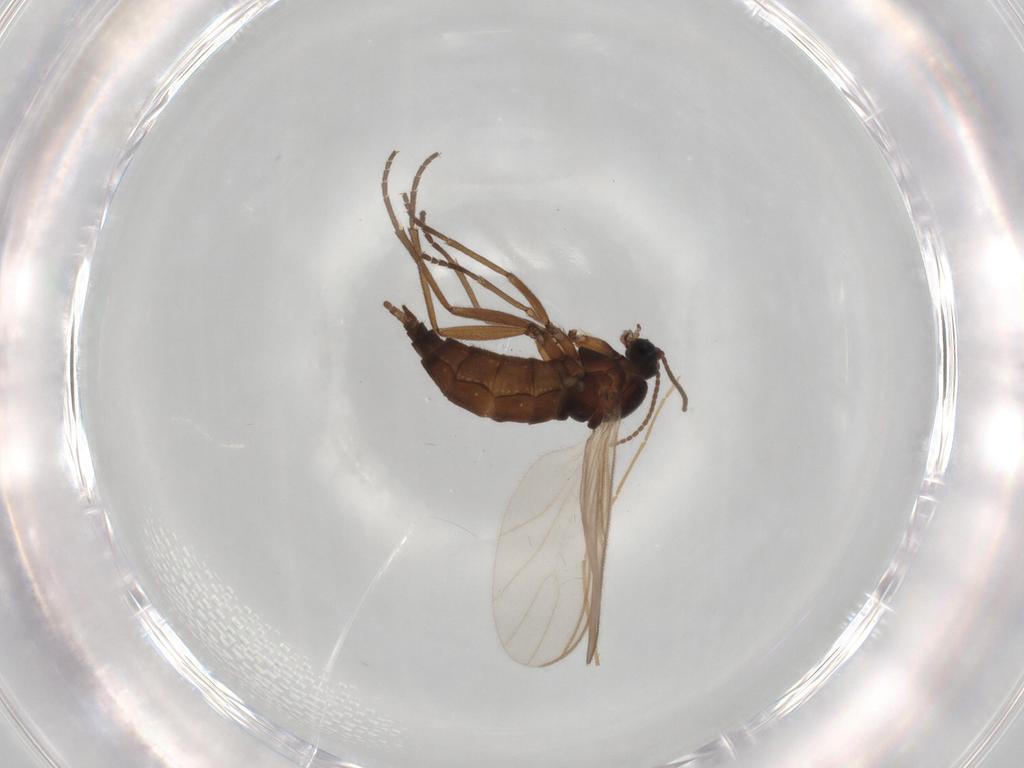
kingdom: Animalia
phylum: Arthropoda
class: Insecta
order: Diptera
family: Sciaridae
